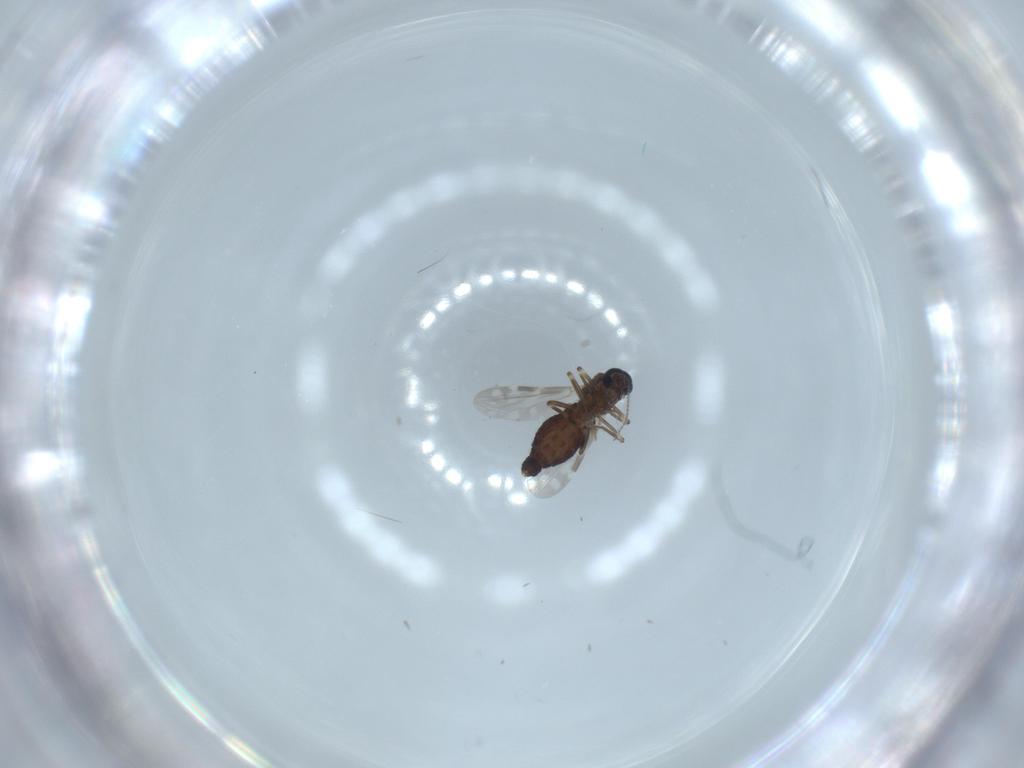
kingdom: Animalia
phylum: Arthropoda
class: Insecta
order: Diptera
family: Ceratopogonidae
